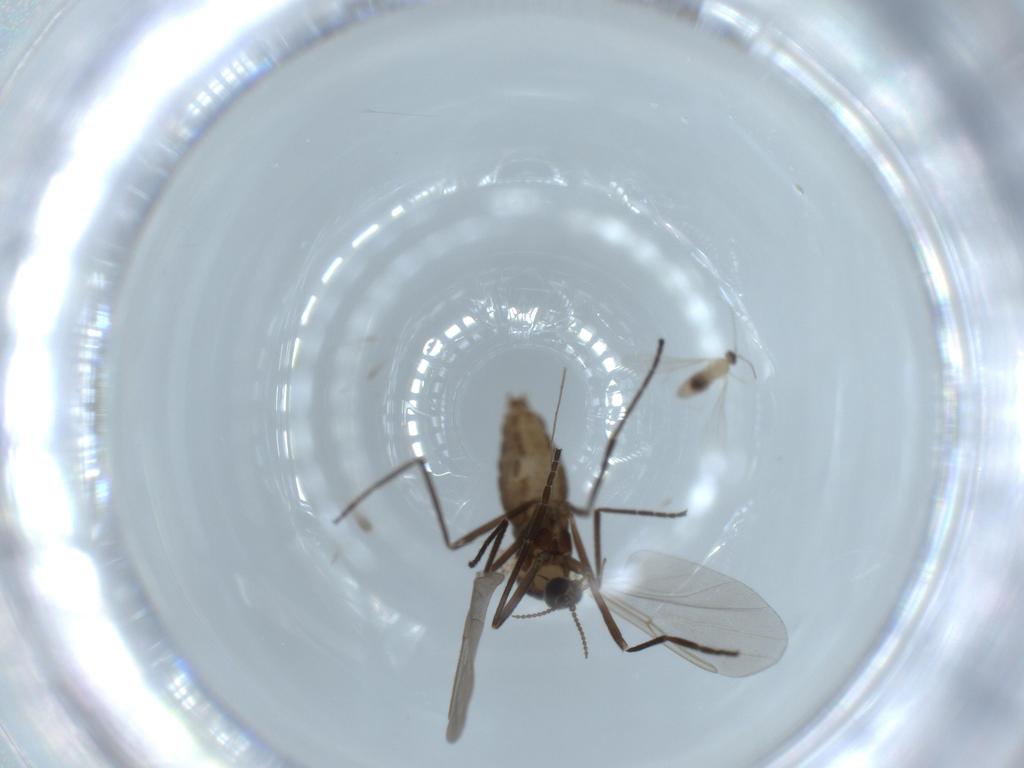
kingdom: Animalia
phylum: Arthropoda
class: Insecta
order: Diptera
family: Cecidomyiidae
